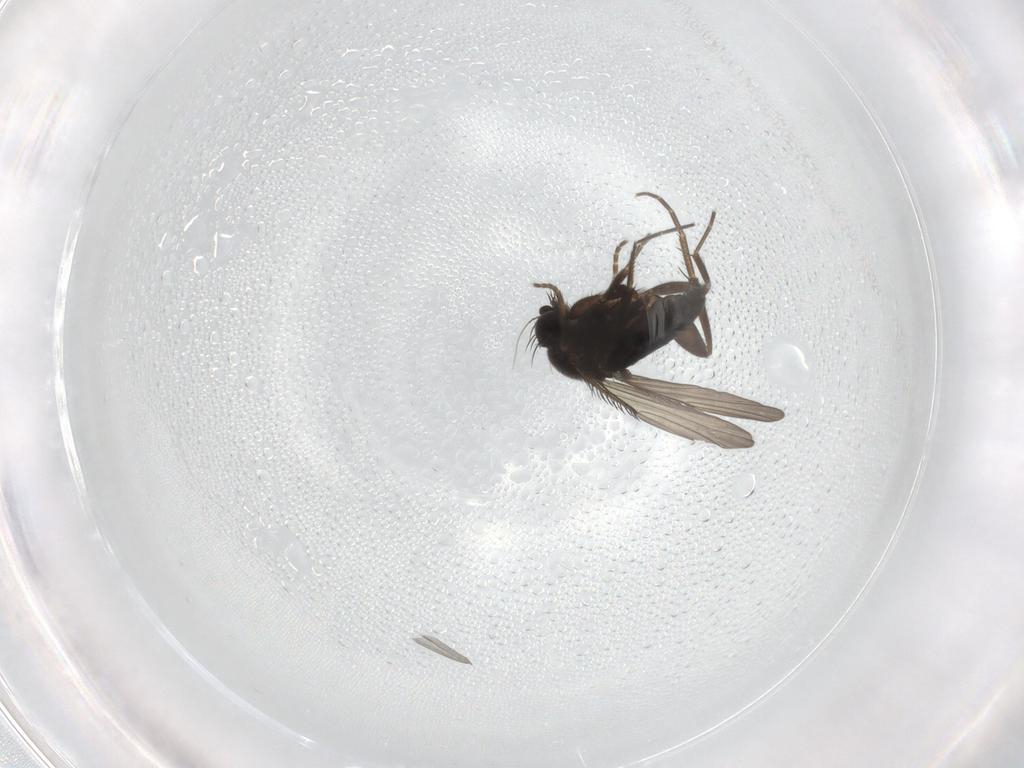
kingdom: Animalia
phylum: Arthropoda
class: Insecta
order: Diptera
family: Phoridae
